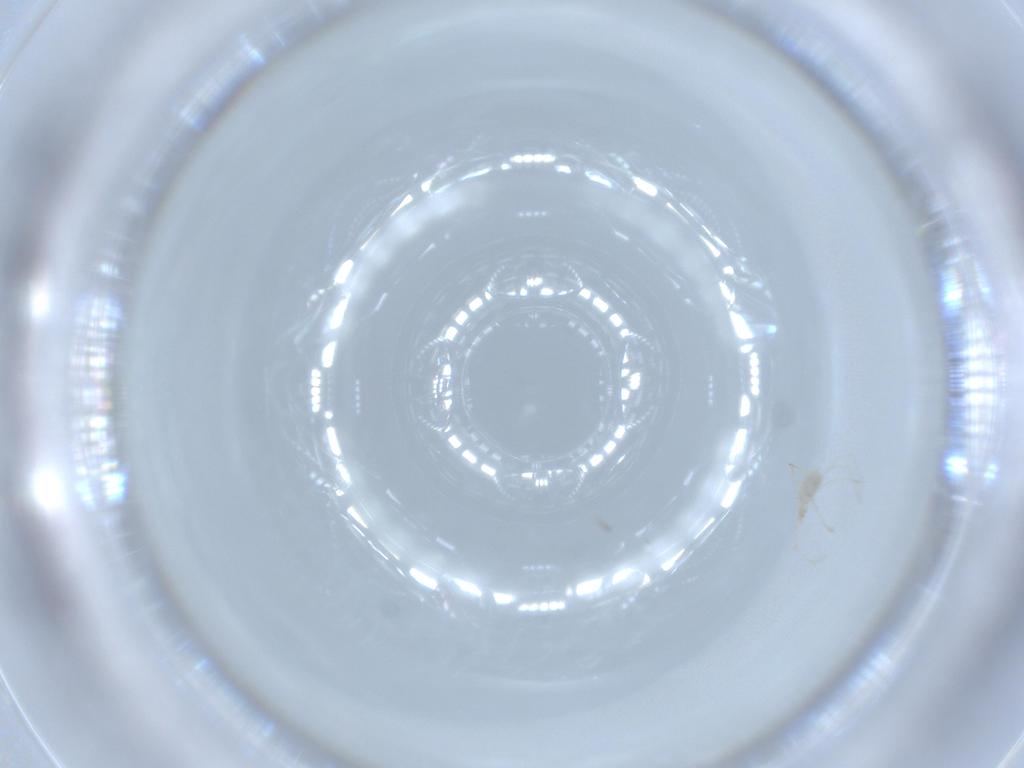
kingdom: Animalia
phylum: Arthropoda
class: Arachnida
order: Araneae
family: Linyphiidae
